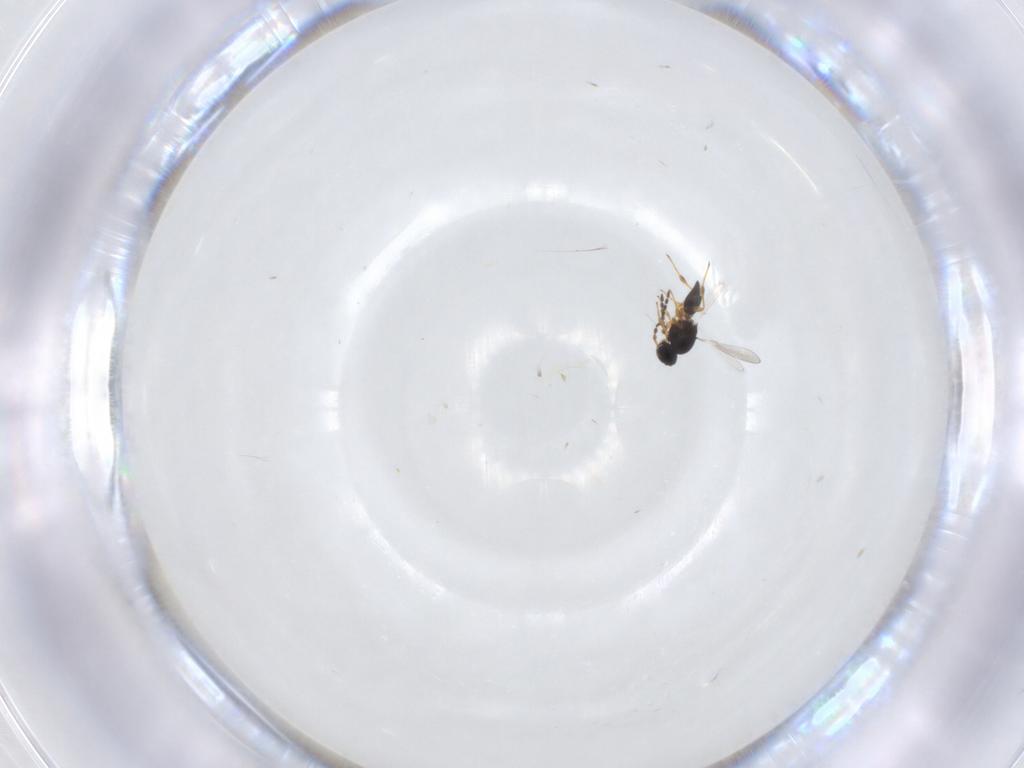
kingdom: Animalia
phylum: Arthropoda
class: Insecta
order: Hymenoptera
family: Platygastridae
